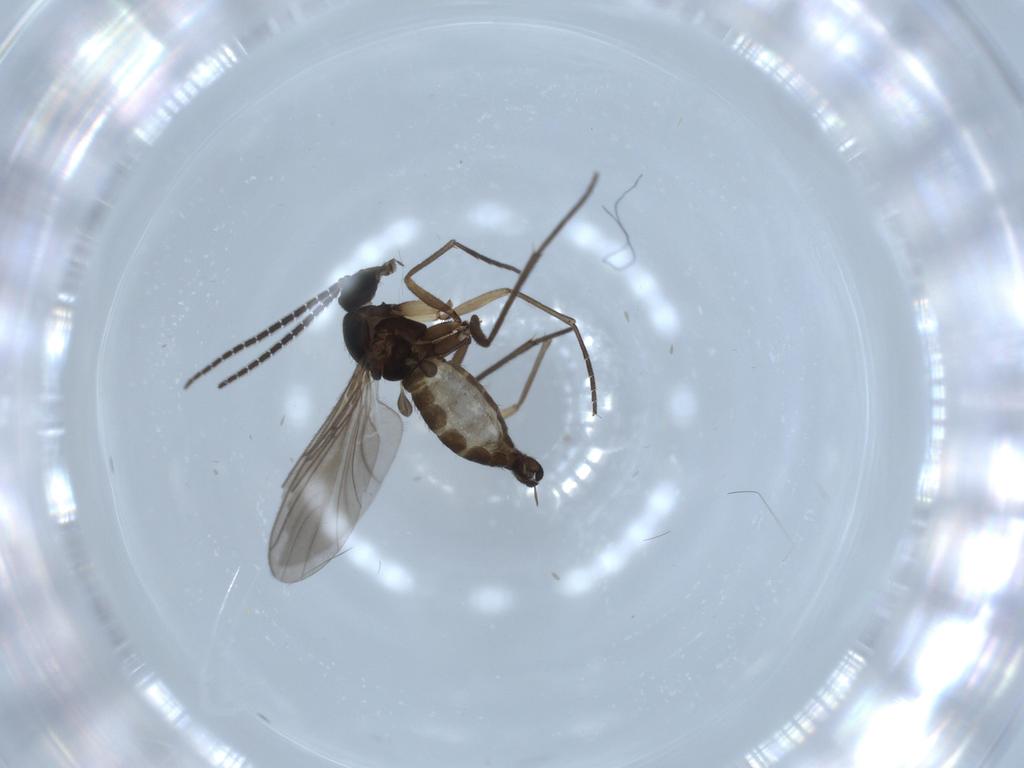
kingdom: Animalia
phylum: Arthropoda
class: Insecta
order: Diptera
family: Sciaridae
